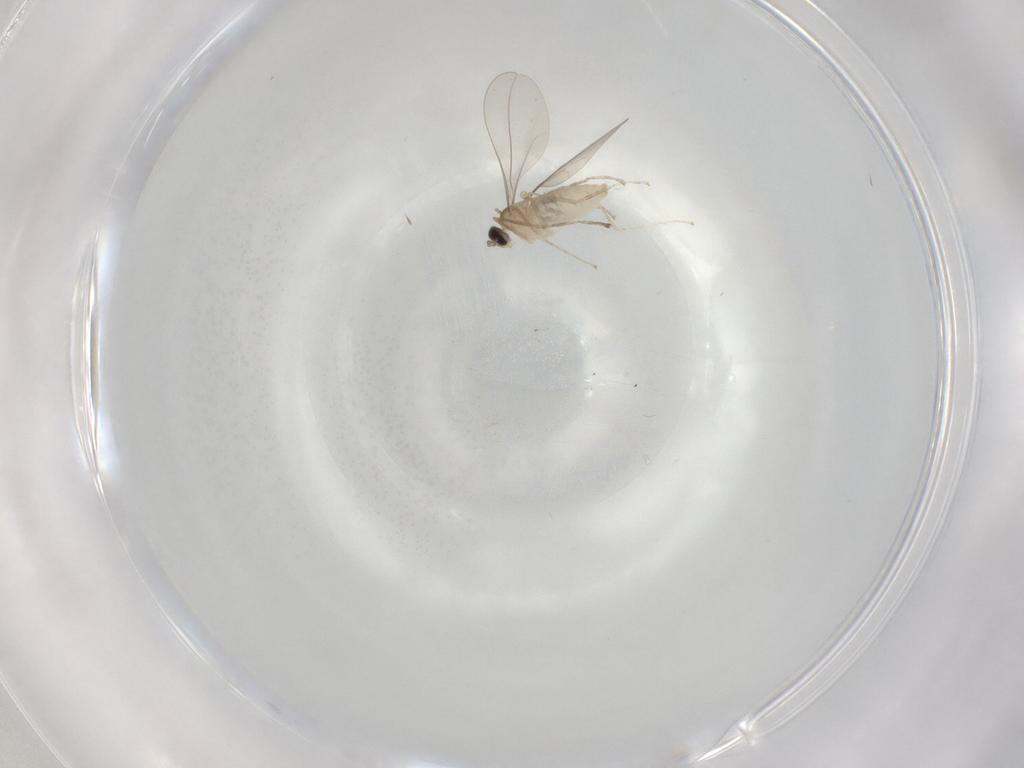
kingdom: Animalia
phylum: Arthropoda
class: Insecta
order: Diptera
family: Cecidomyiidae
